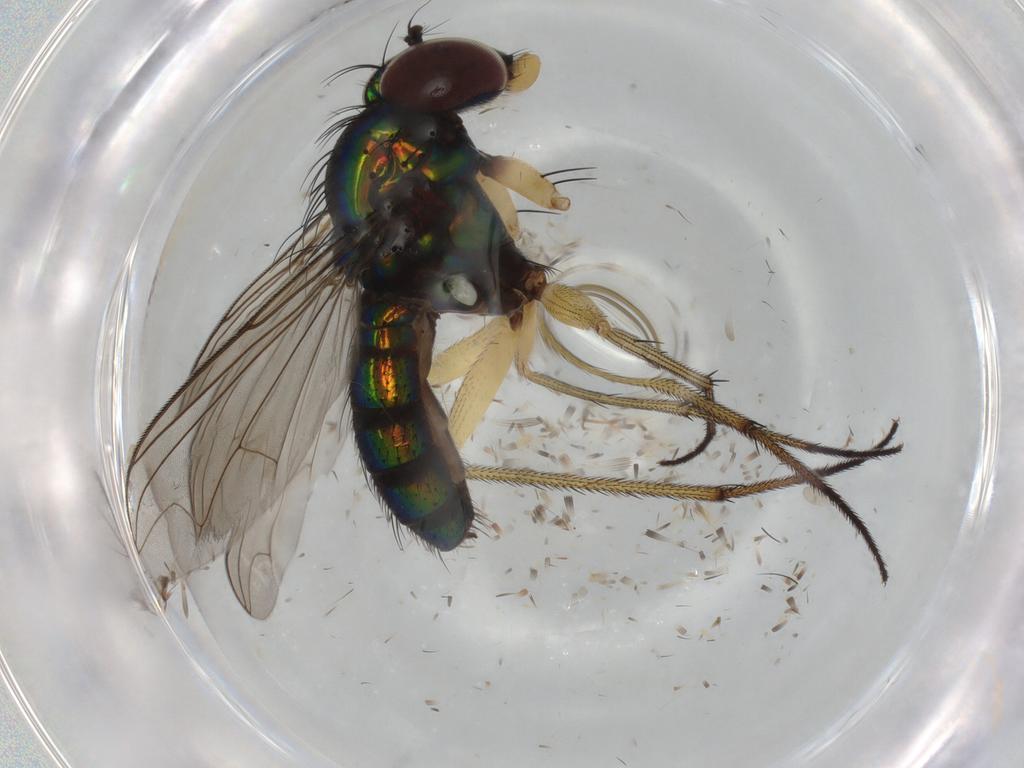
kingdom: Animalia
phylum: Arthropoda
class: Insecta
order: Diptera
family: Dolichopodidae
